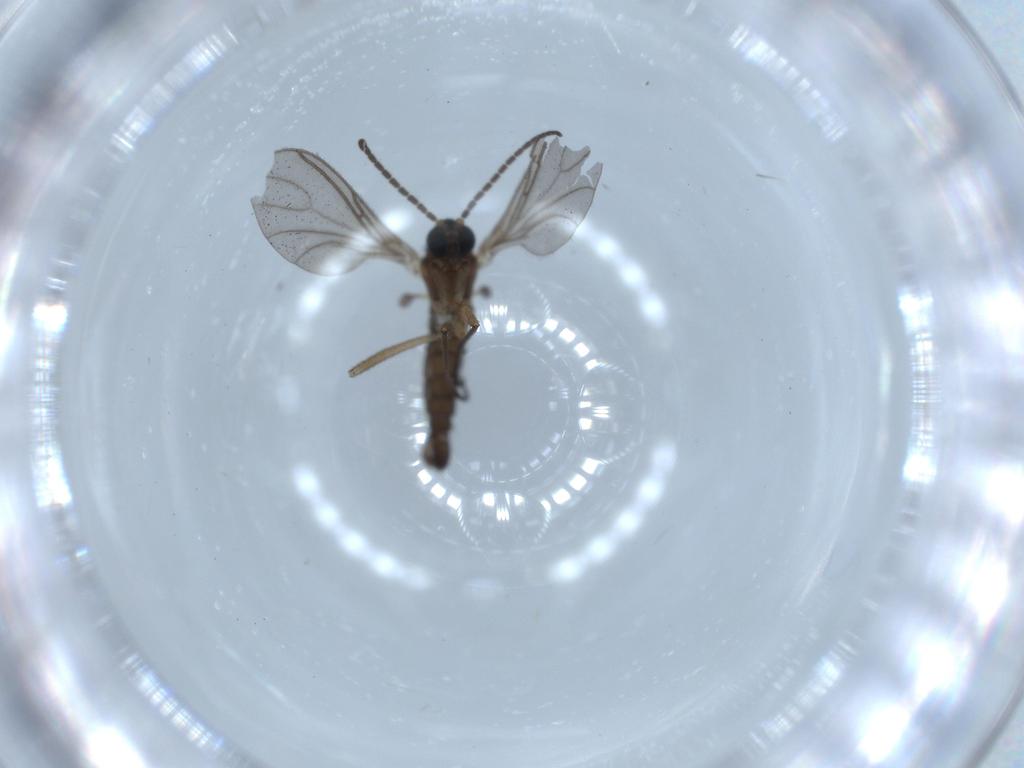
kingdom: Animalia
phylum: Arthropoda
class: Insecta
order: Diptera
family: Sciaridae
